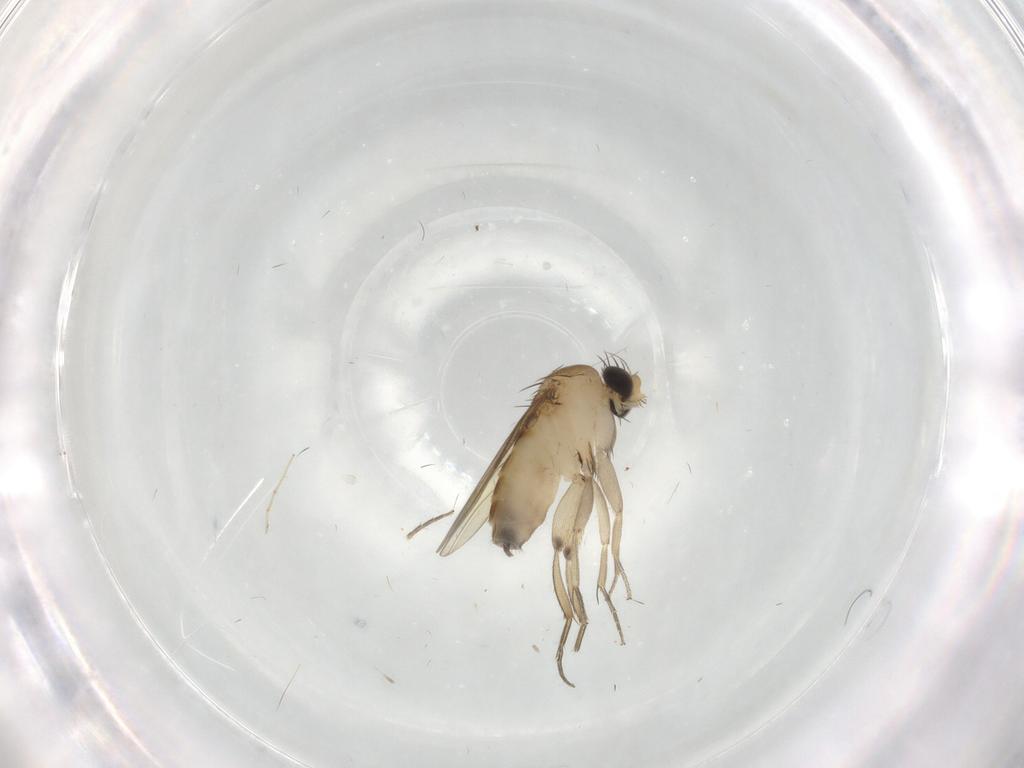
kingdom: Animalia
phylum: Arthropoda
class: Insecta
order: Diptera
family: Phoridae
